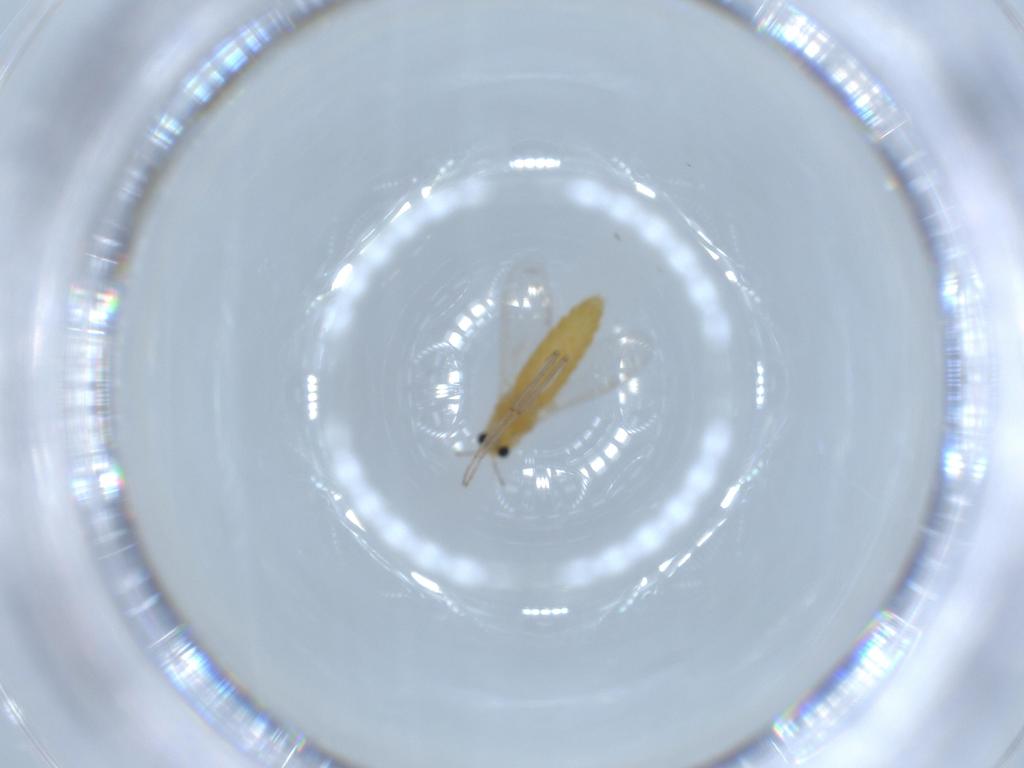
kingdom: Animalia
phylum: Arthropoda
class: Insecta
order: Diptera
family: Chironomidae
